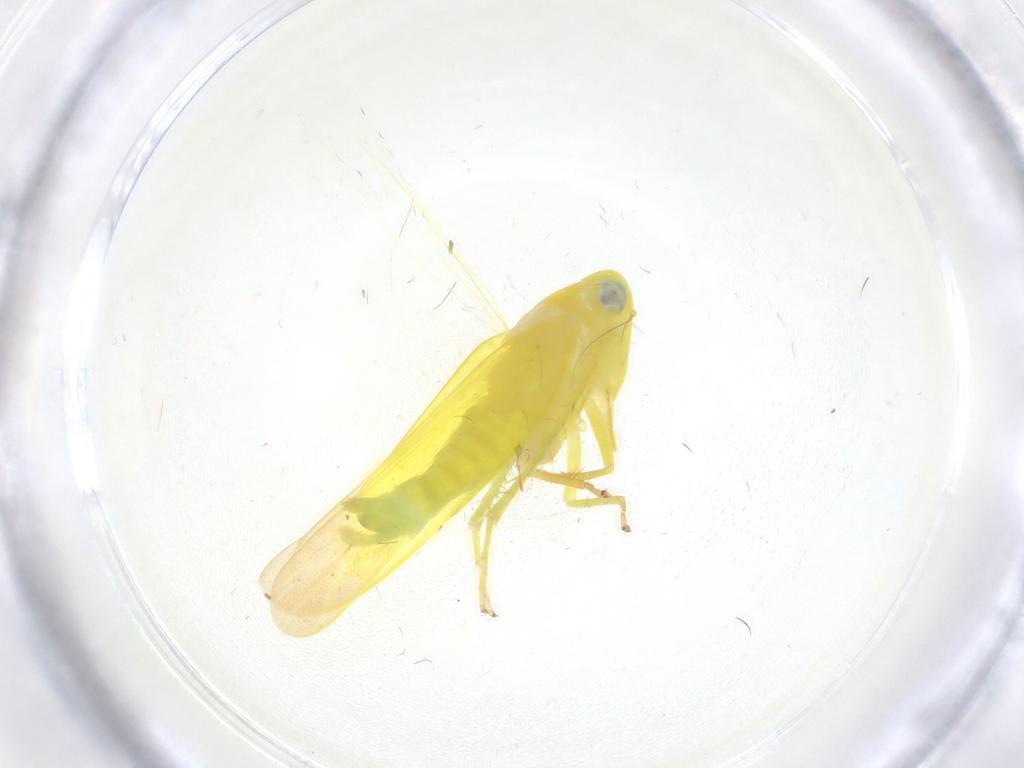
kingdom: Animalia
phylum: Arthropoda
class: Insecta
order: Hemiptera
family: Cicadellidae
